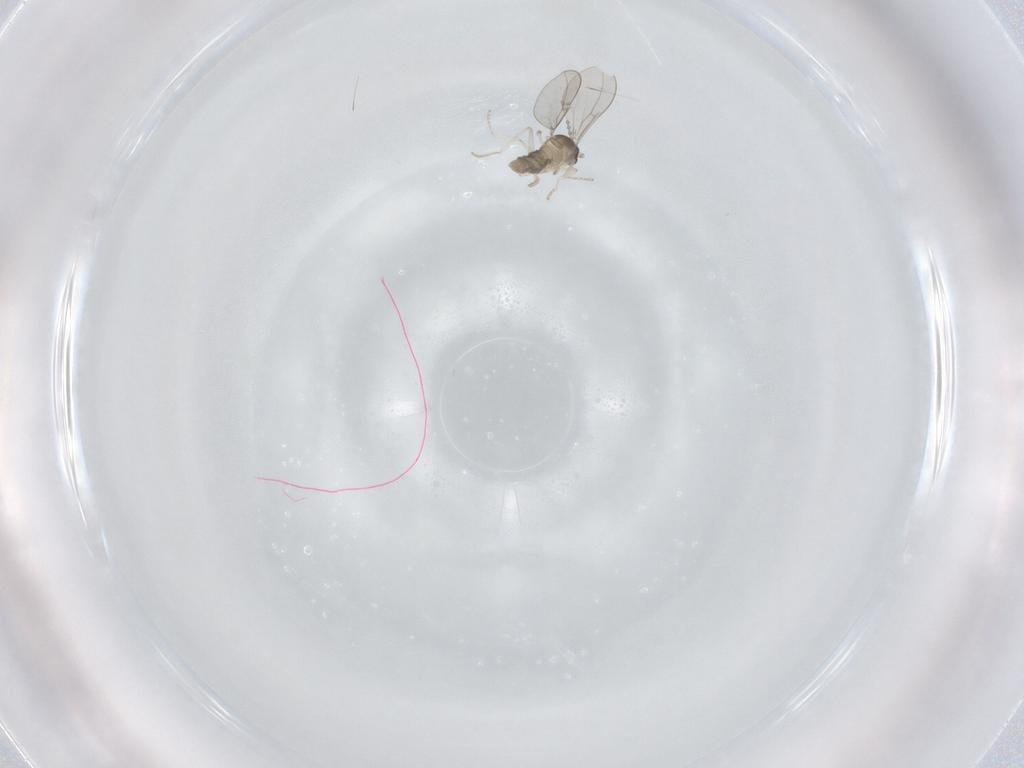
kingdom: Animalia
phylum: Arthropoda
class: Insecta
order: Diptera
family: Sciaridae
